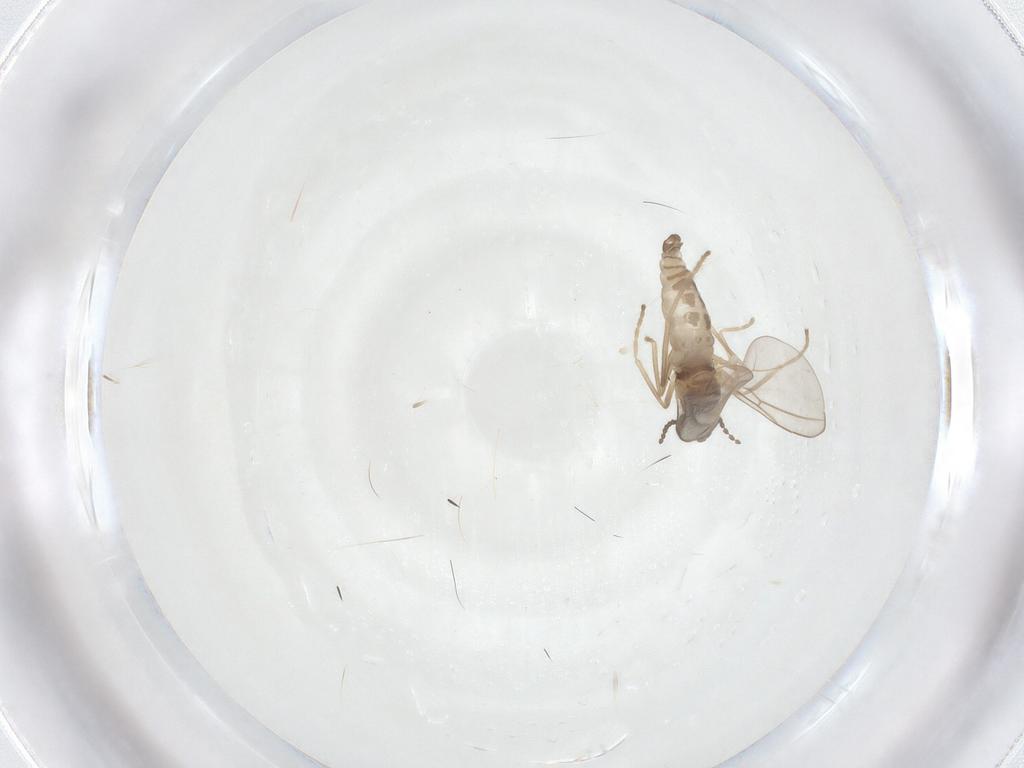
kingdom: Animalia
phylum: Arthropoda
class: Insecta
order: Diptera
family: Cecidomyiidae
